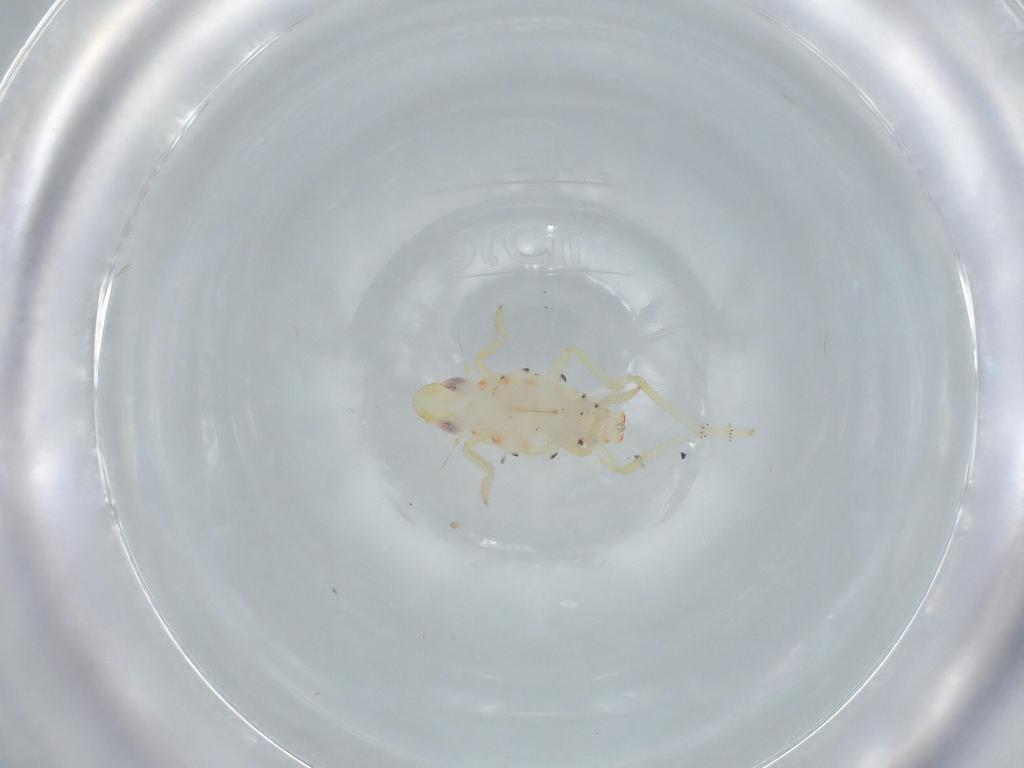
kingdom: Animalia
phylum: Arthropoda
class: Insecta
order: Hemiptera
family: Tropiduchidae
